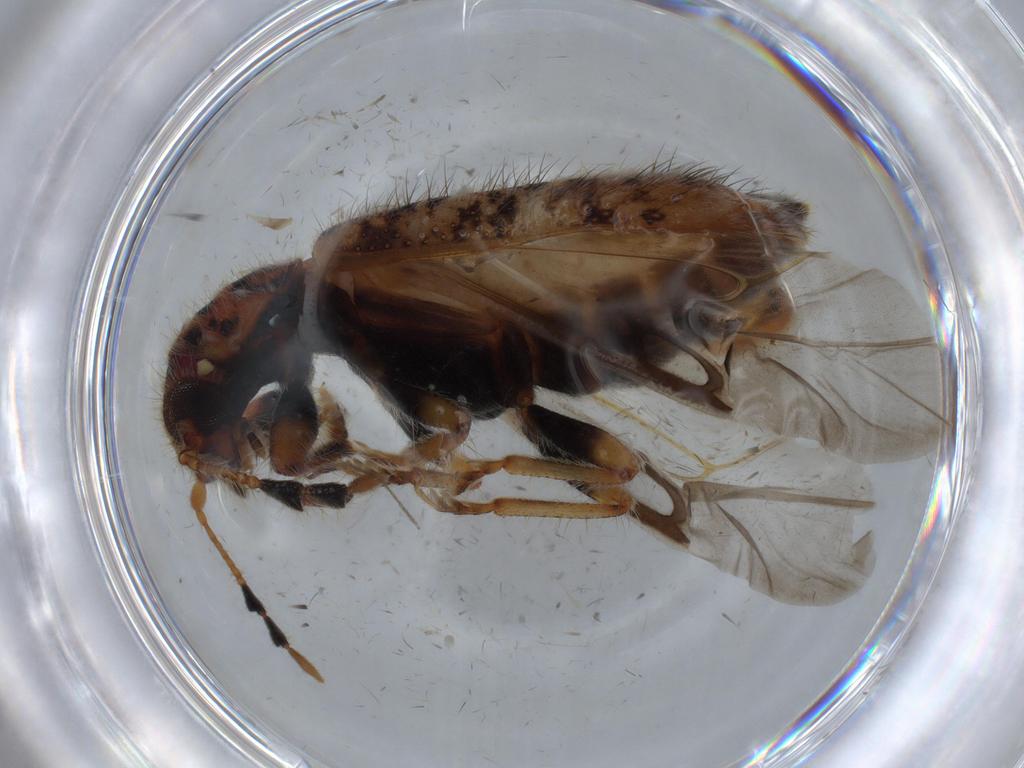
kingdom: Animalia
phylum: Arthropoda
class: Insecta
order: Coleoptera
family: Cleridae
